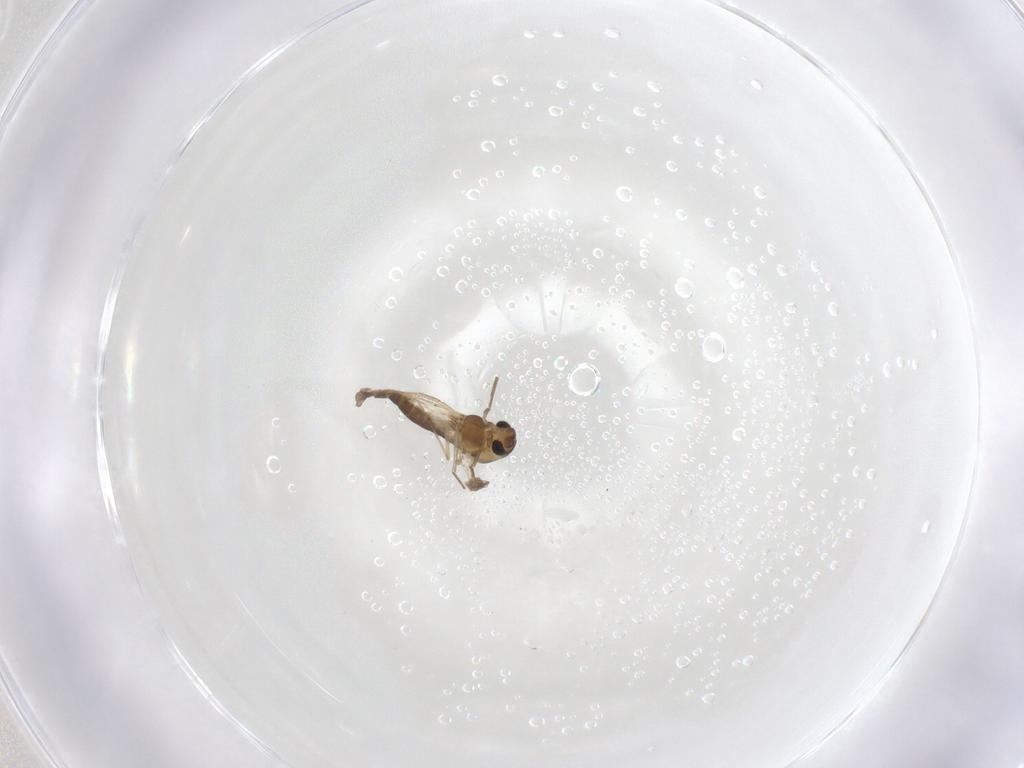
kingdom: Animalia
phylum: Arthropoda
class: Insecta
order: Diptera
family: Chironomidae
